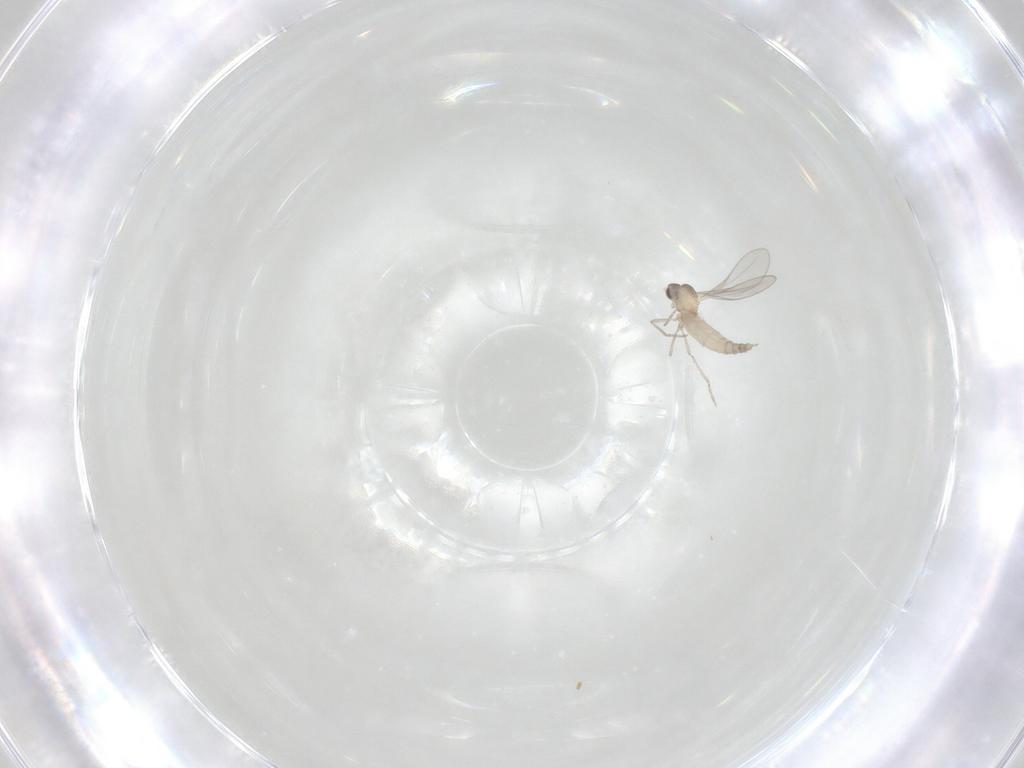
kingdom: Animalia
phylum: Arthropoda
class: Insecta
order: Diptera
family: Cecidomyiidae
